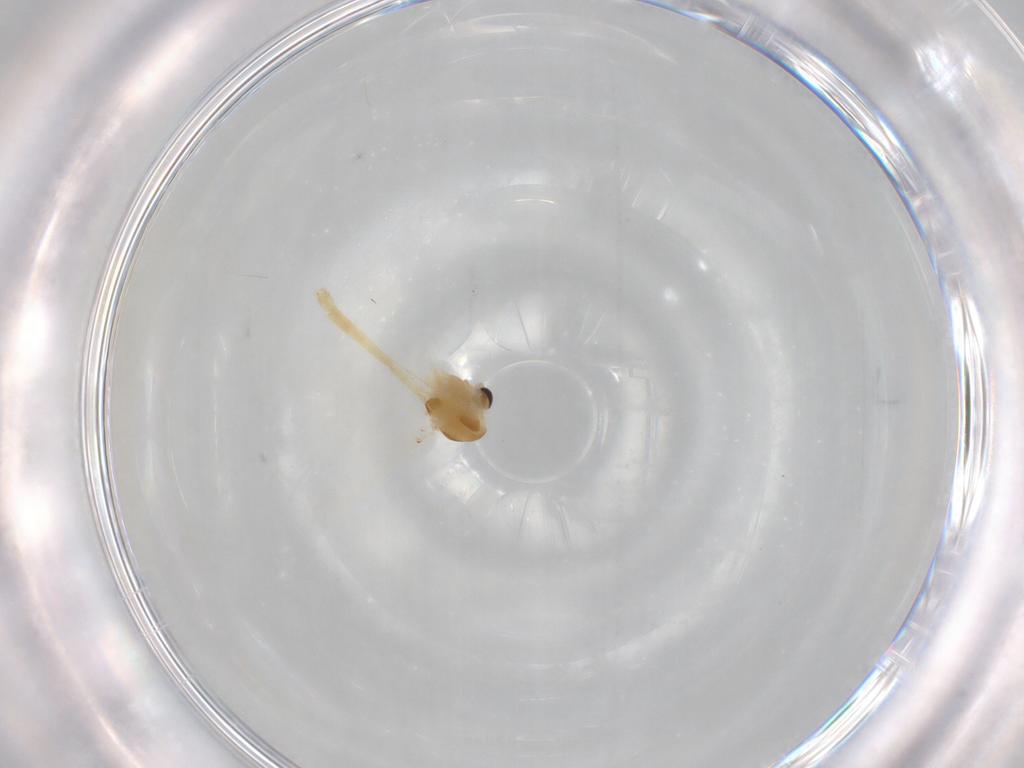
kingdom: Animalia
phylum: Arthropoda
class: Insecta
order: Diptera
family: Chironomidae
